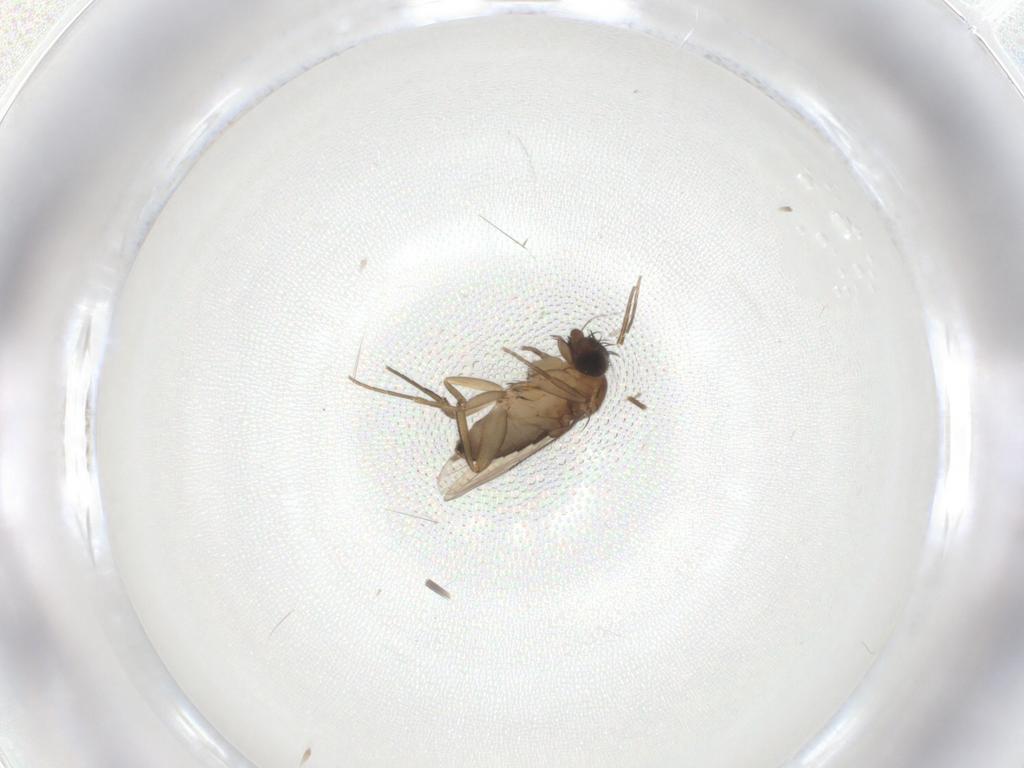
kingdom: Animalia
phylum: Arthropoda
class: Insecta
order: Diptera
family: Phoridae
